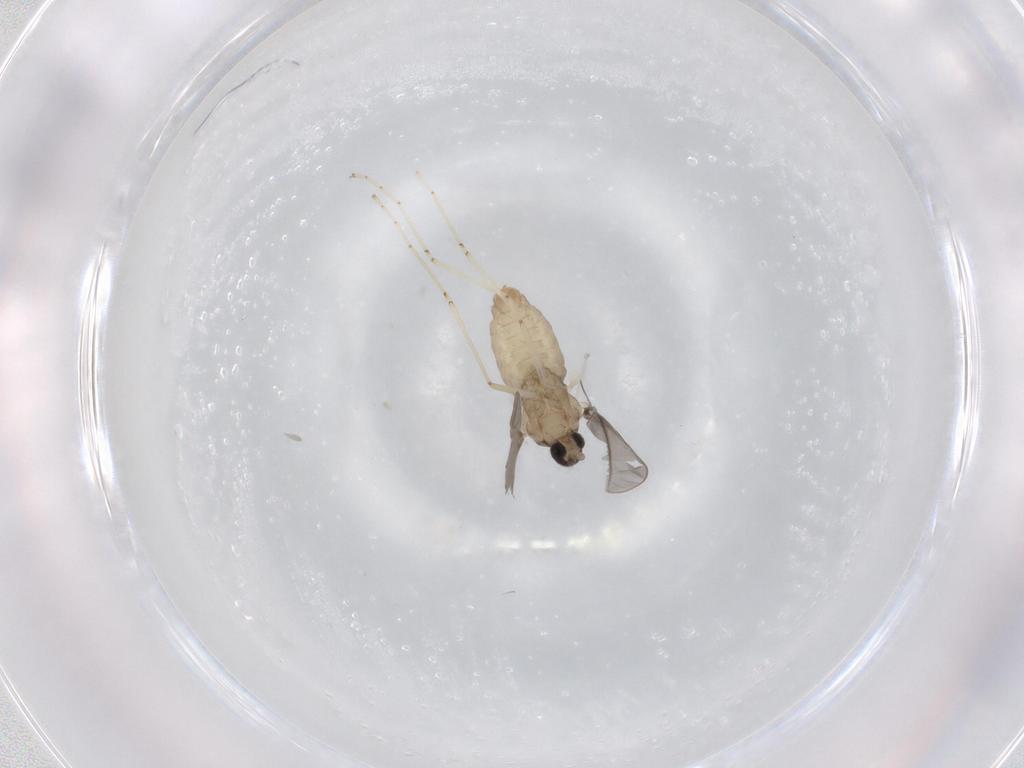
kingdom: Animalia
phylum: Arthropoda
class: Insecta
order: Diptera
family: Cecidomyiidae
